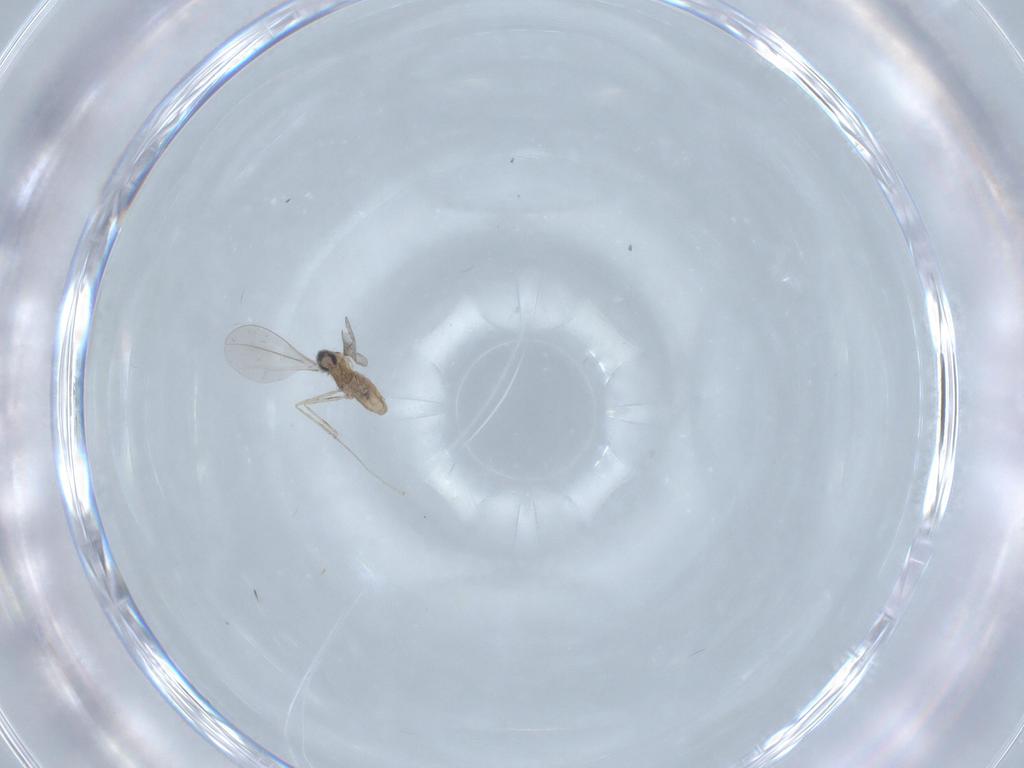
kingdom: Animalia
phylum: Arthropoda
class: Insecta
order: Diptera
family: Cecidomyiidae
